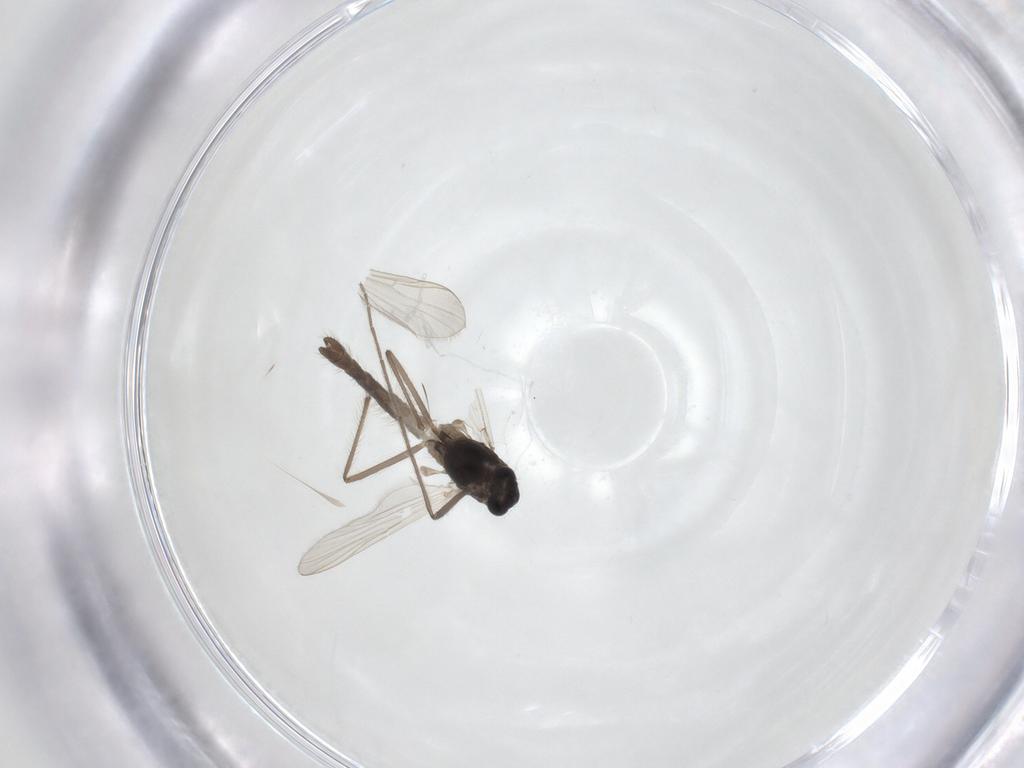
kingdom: Animalia
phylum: Arthropoda
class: Insecta
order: Diptera
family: Chironomidae
